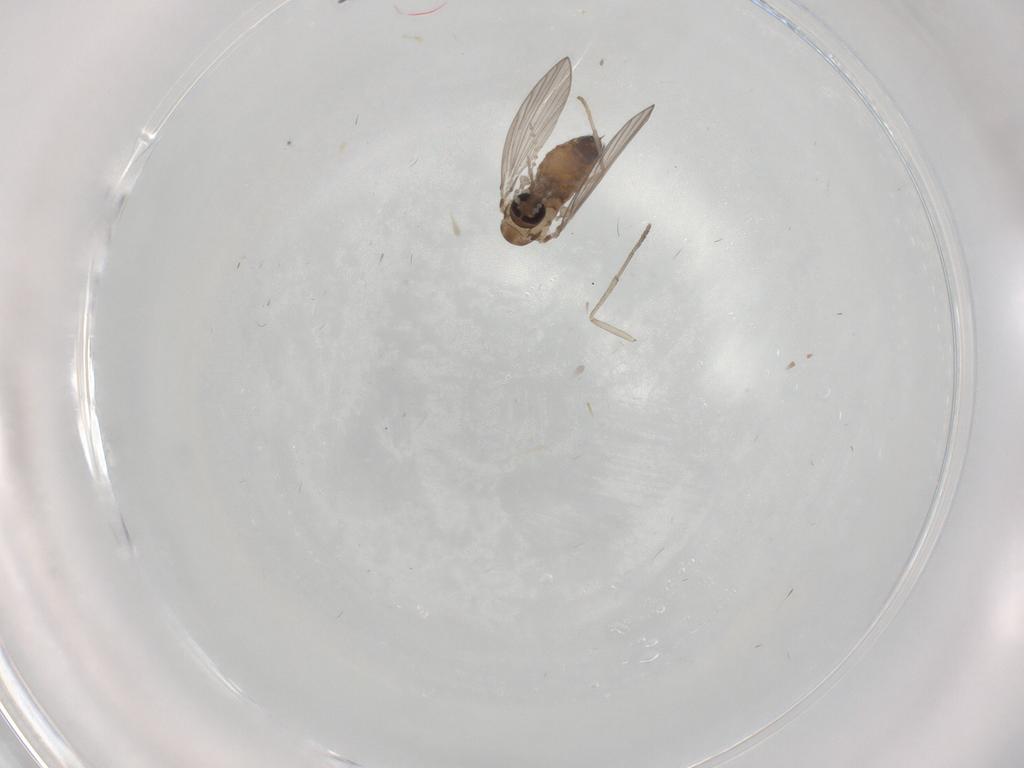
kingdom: Animalia
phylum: Arthropoda
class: Insecta
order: Diptera
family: Psychodidae
